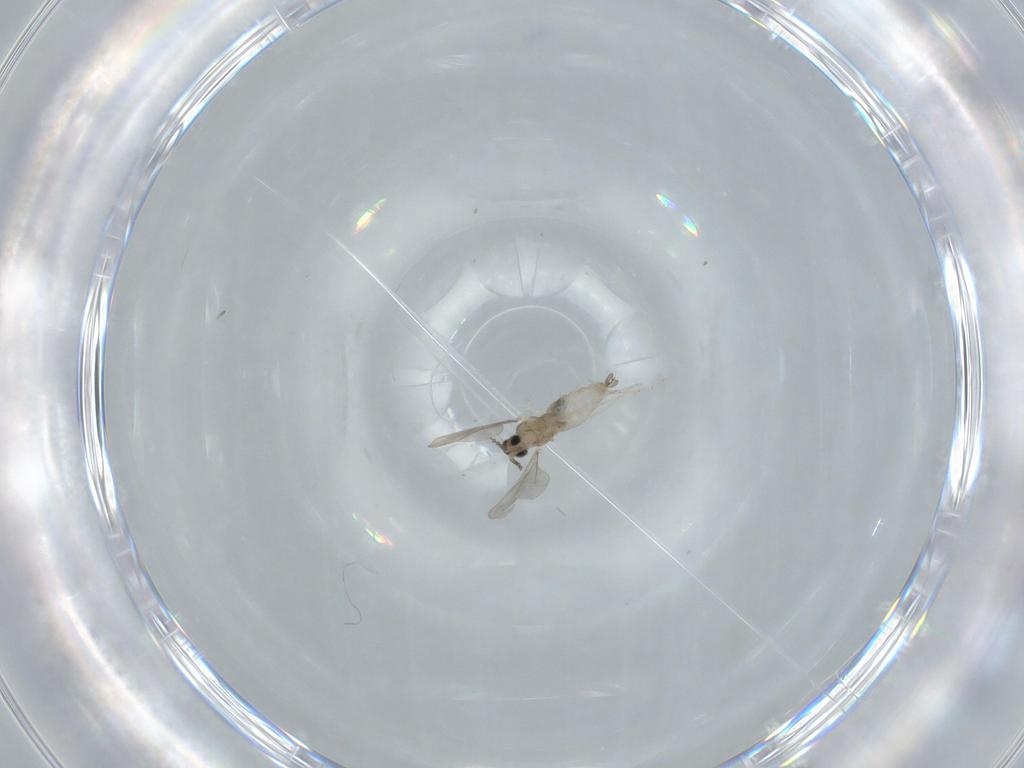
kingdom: Animalia
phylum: Arthropoda
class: Insecta
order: Diptera
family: Cecidomyiidae
